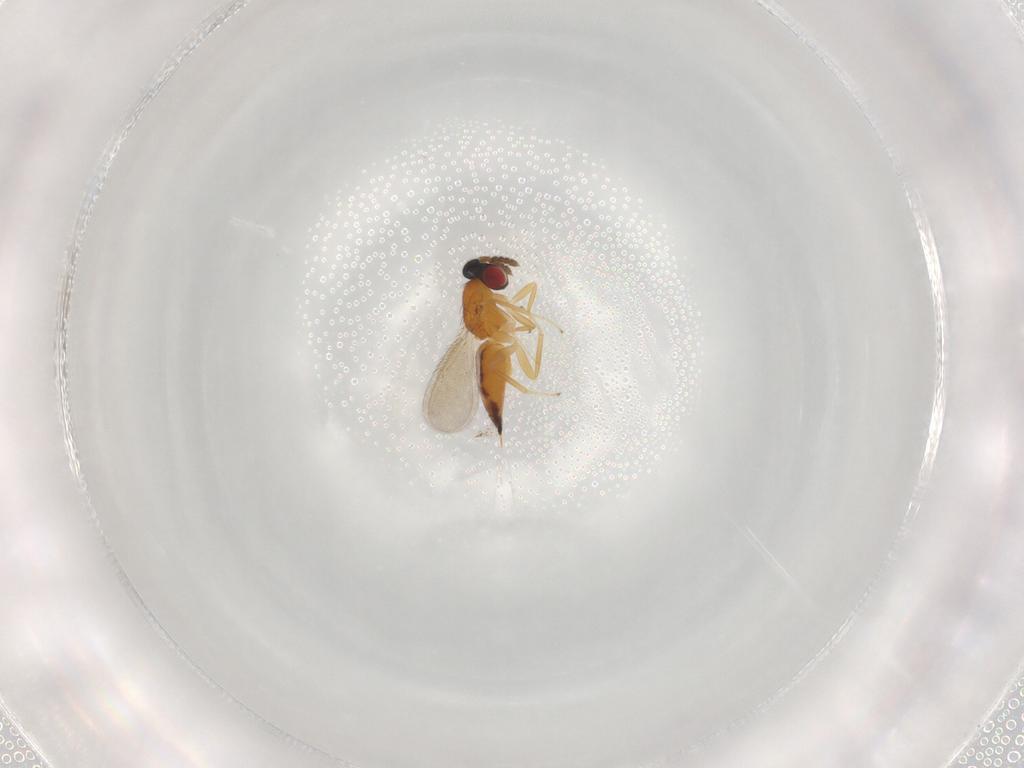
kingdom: Animalia
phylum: Arthropoda
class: Insecta
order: Hymenoptera
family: Eulophidae
